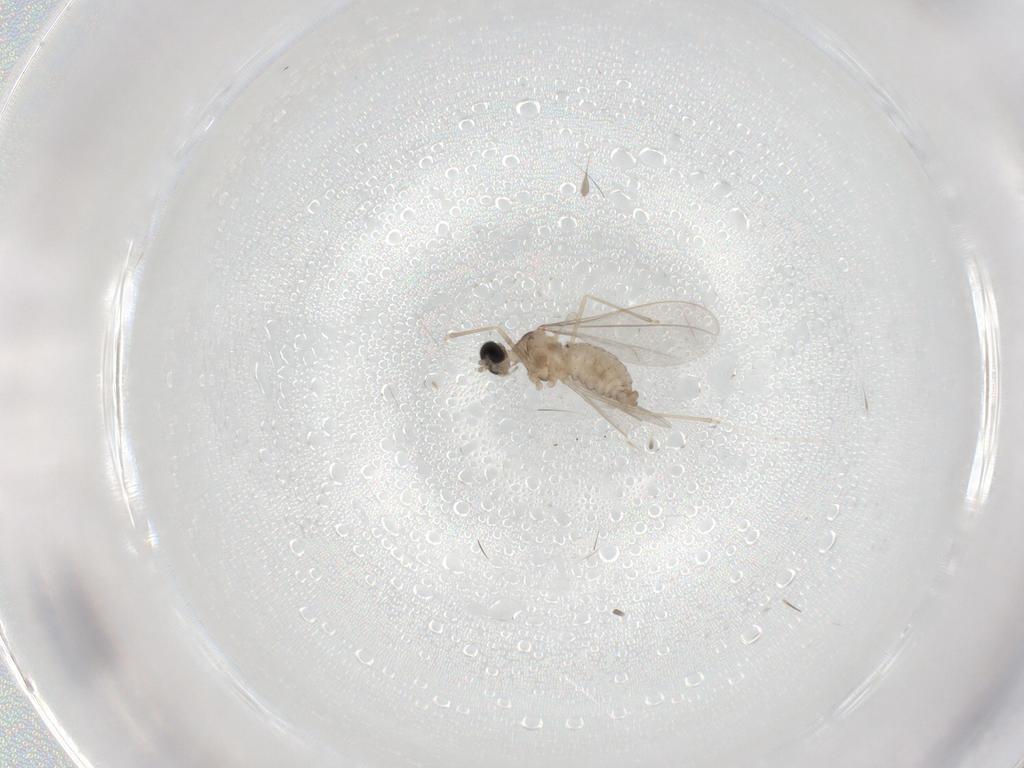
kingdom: Animalia
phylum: Arthropoda
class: Insecta
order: Diptera
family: Cecidomyiidae
